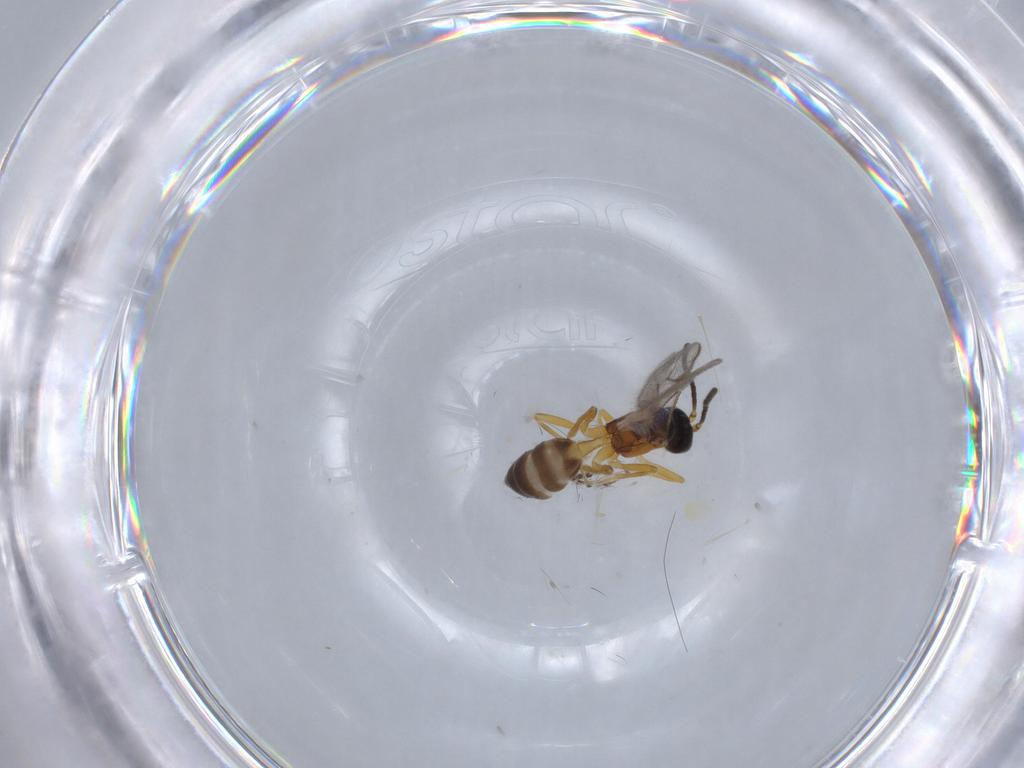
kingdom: Animalia
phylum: Arthropoda
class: Insecta
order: Hymenoptera
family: Braconidae
